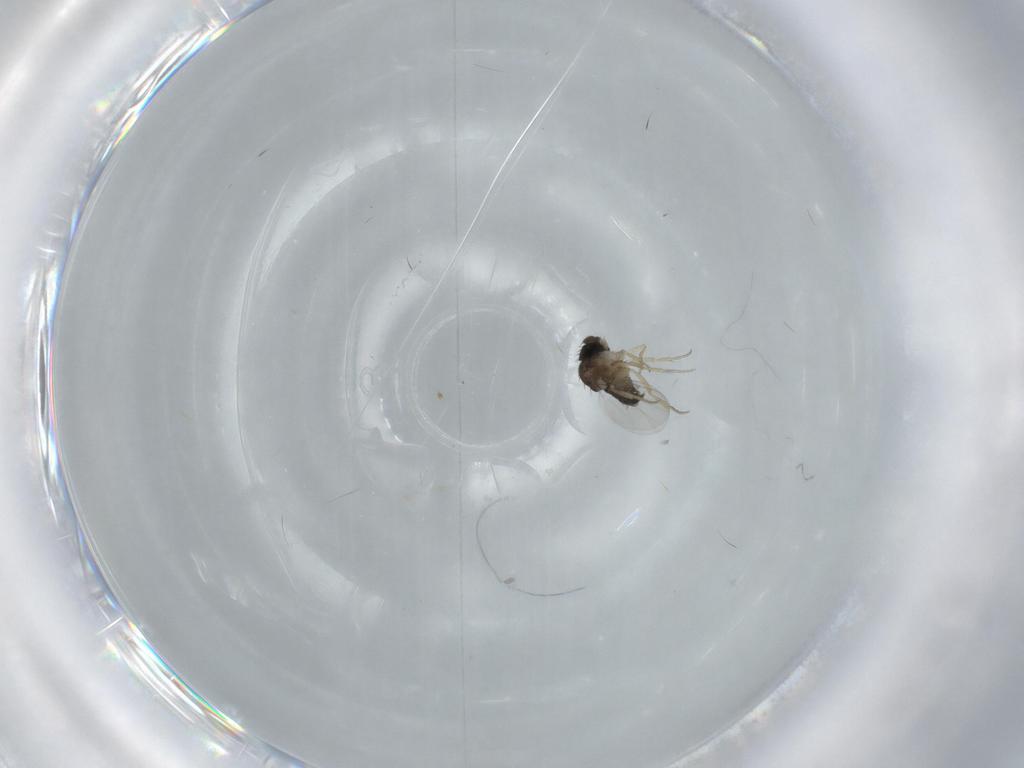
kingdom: Animalia
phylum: Arthropoda
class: Insecta
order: Diptera
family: Phoridae
